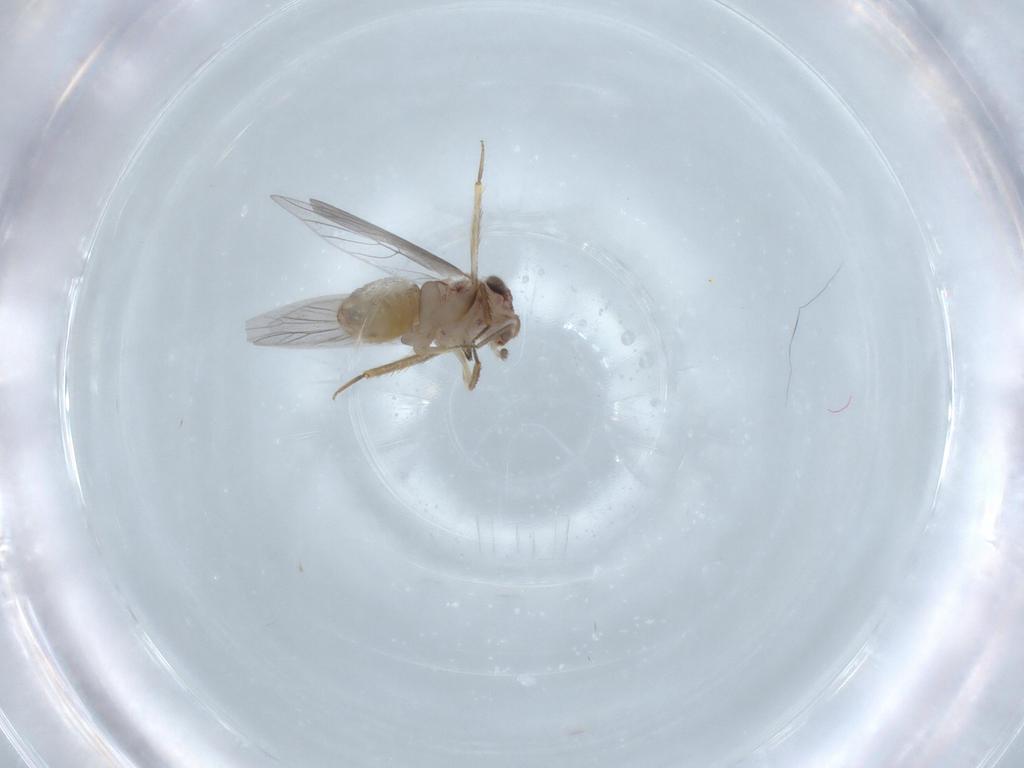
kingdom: Animalia
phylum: Arthropoda
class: Insecta
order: Psocodea
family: Lepidopsocidae
